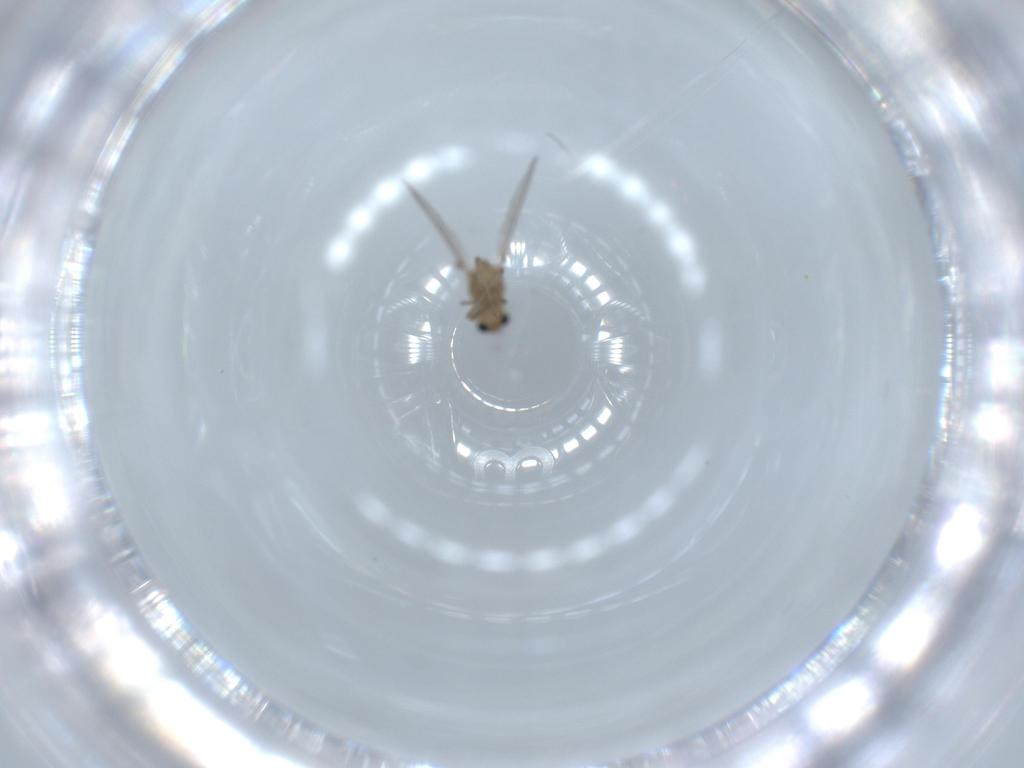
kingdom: Animalia
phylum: Arthropoda
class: Insecta
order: Diptera
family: Chironomidae
